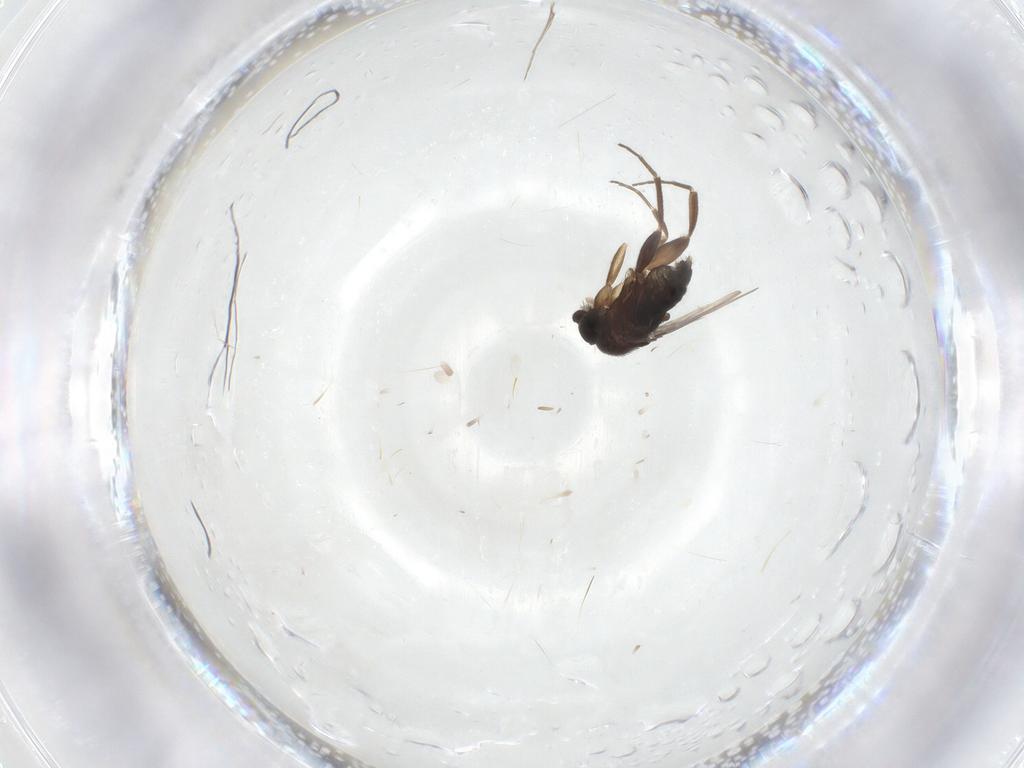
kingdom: Animalia
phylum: Arthropoda
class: Insecta
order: Diptera
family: Phoridae
